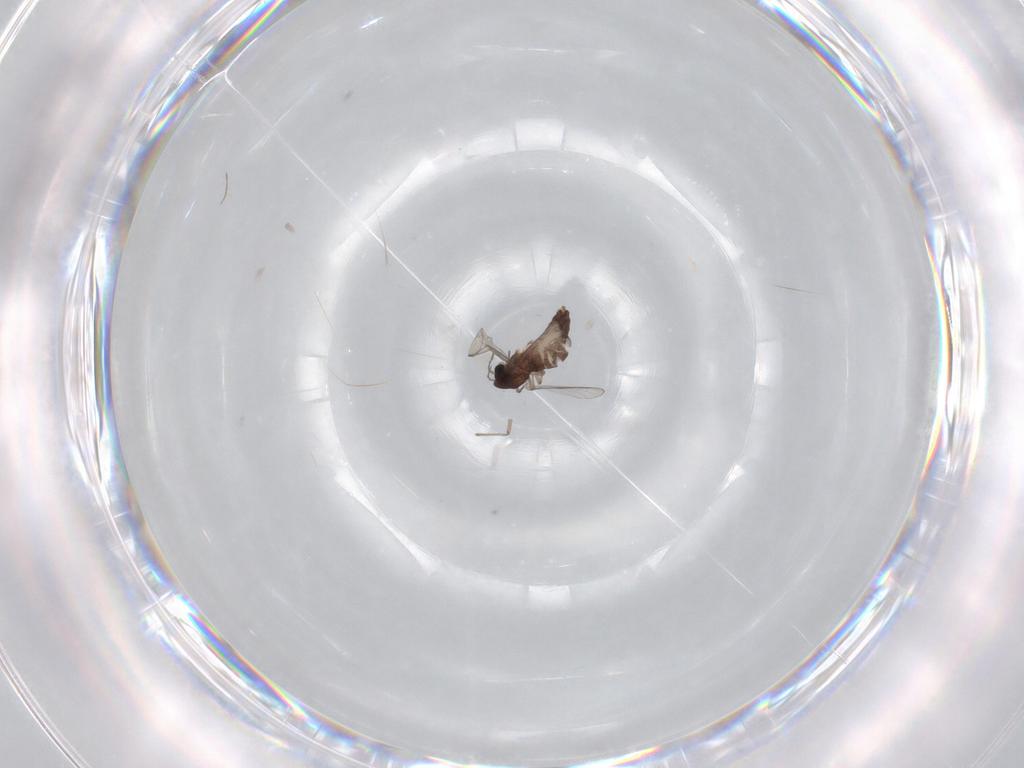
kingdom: Animalia
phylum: Arthropoda
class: Insecta
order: Diptera
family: Chironomidae
